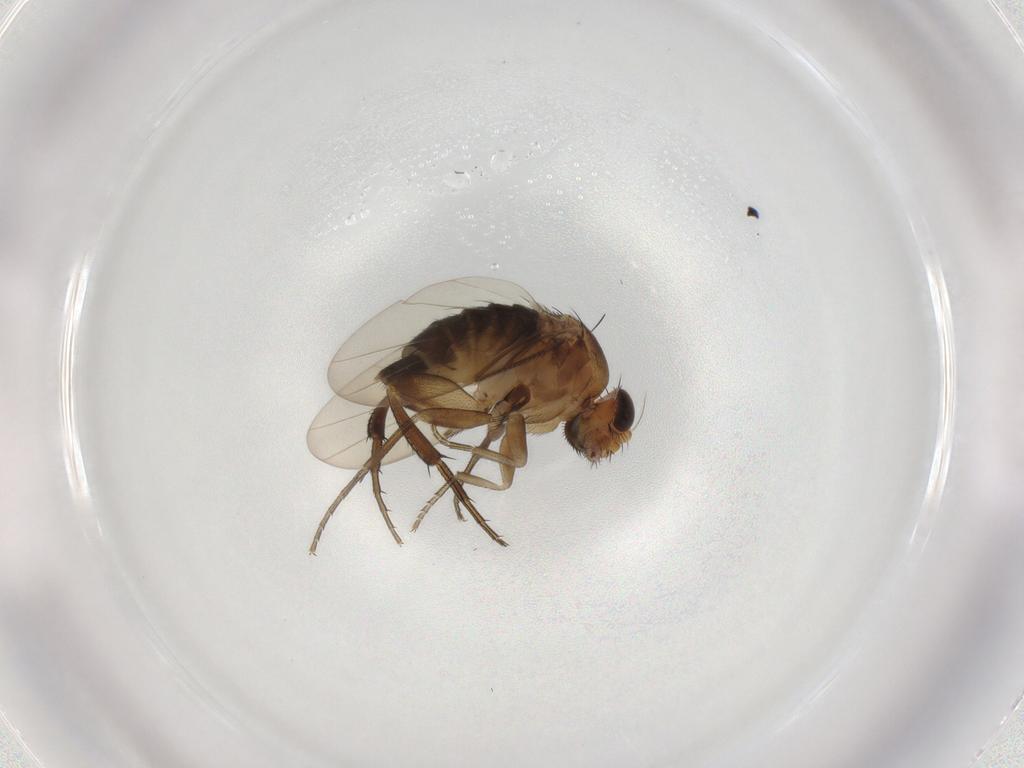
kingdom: Animalia
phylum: Arthropoda
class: Insecta
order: Diptera
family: Phoridae
